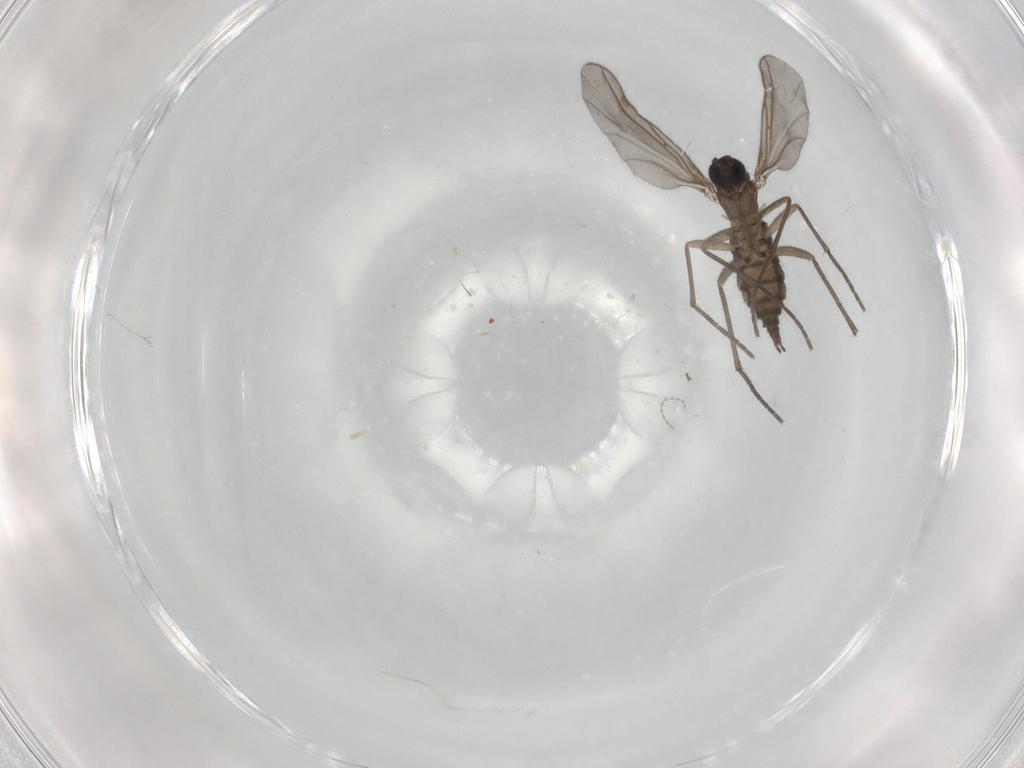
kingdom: Animalia
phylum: Arthropoda
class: Insecta
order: Diptera
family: Sciaridae
